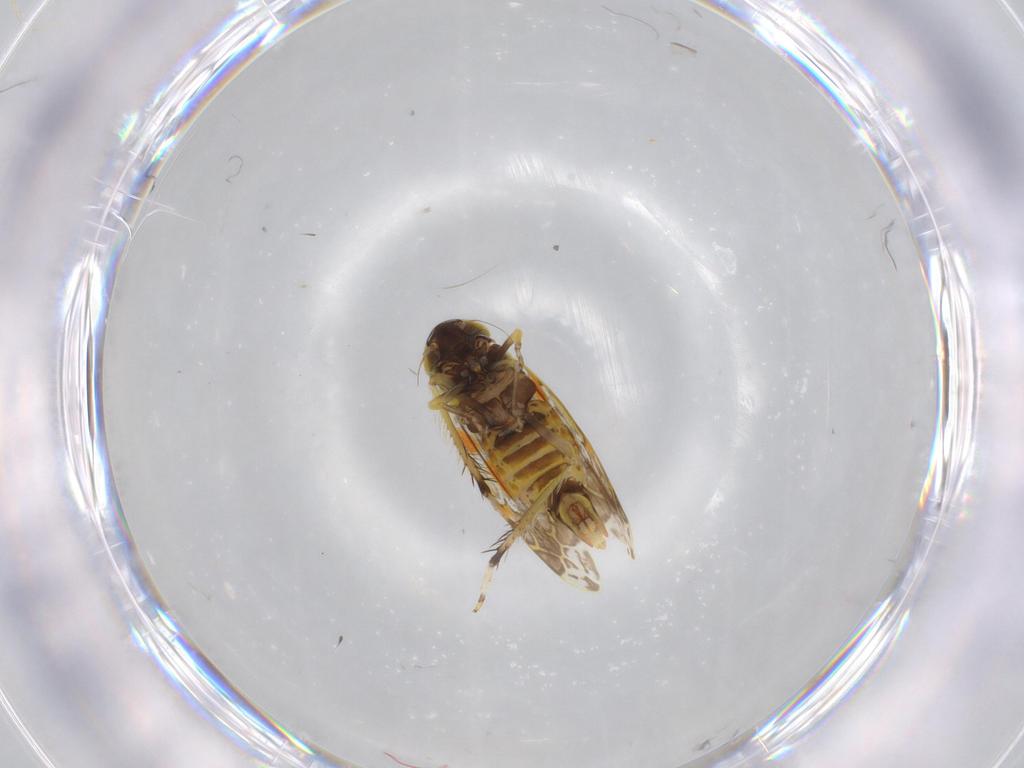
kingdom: Animalia
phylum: Arthropoda
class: Insecta
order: Hemiptera
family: Cicadellidae
